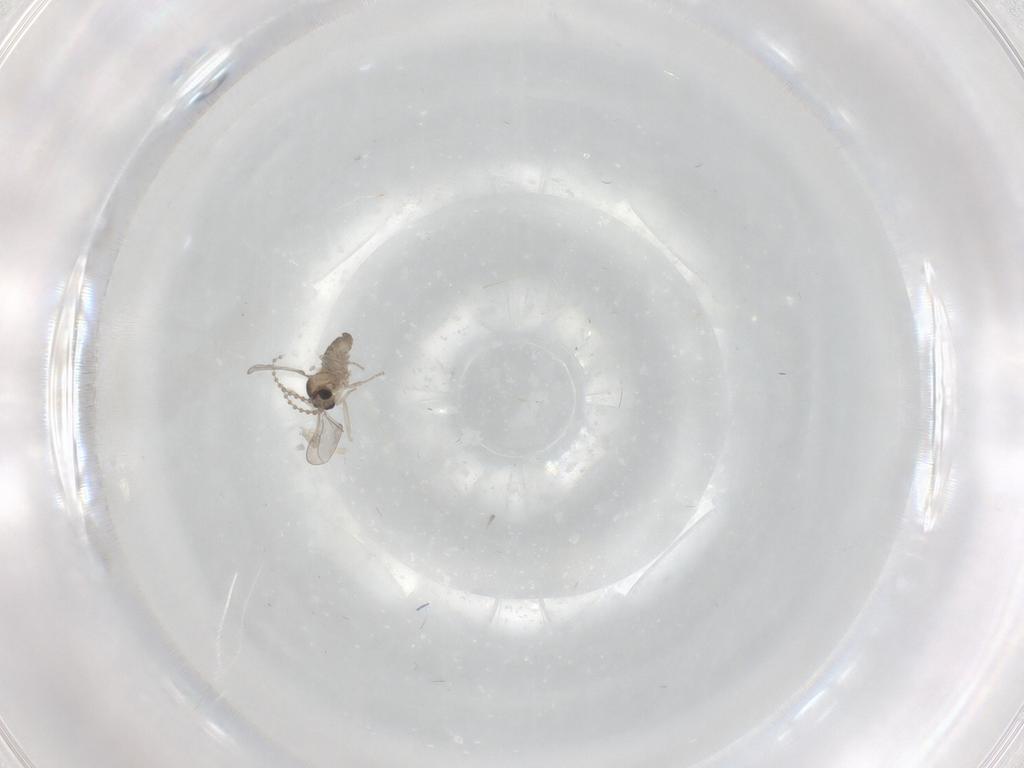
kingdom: Animalia
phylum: Arthropoda
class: Insecta
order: Diptera
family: Cecidomyiidae
